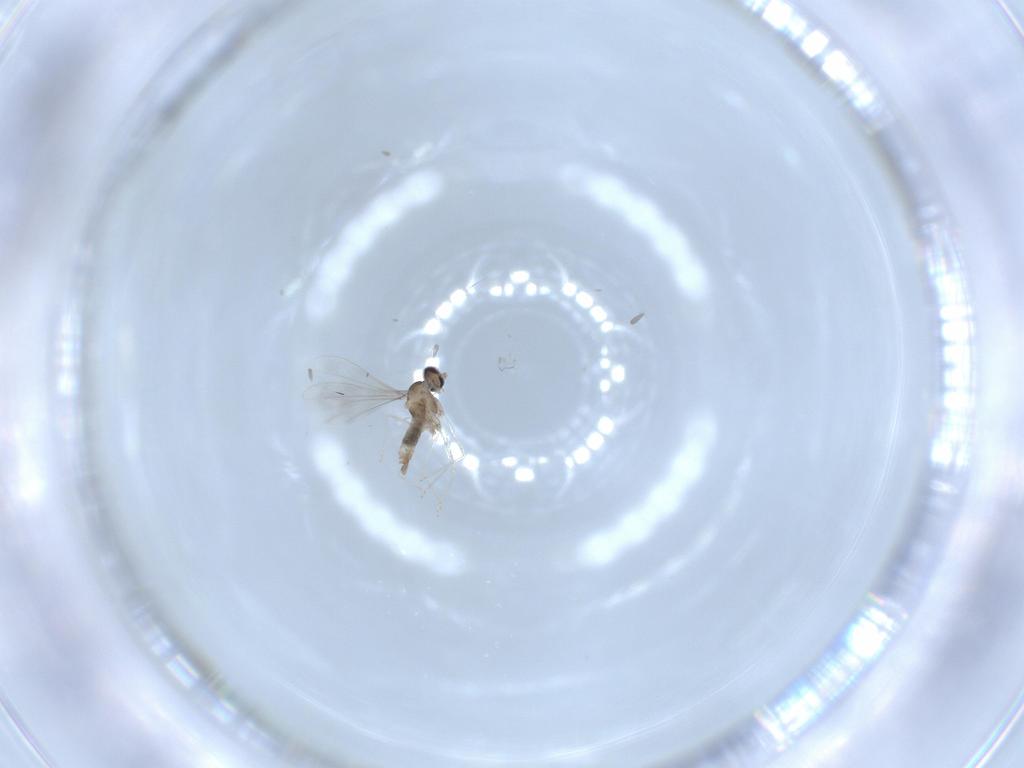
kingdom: Animalia
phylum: Arthropoda
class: Insecta
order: Diptera
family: Cecidomyiidae
